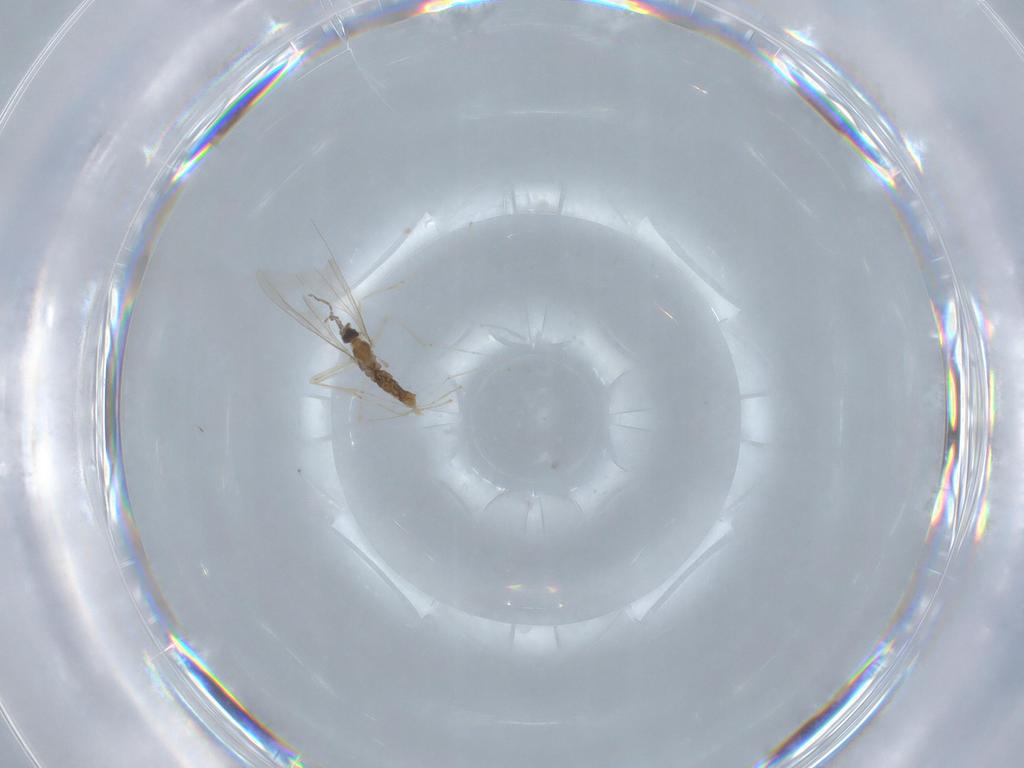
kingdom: Animalia
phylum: Arthropoda
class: Insecta
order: Diptera
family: Cecidomyiidae
